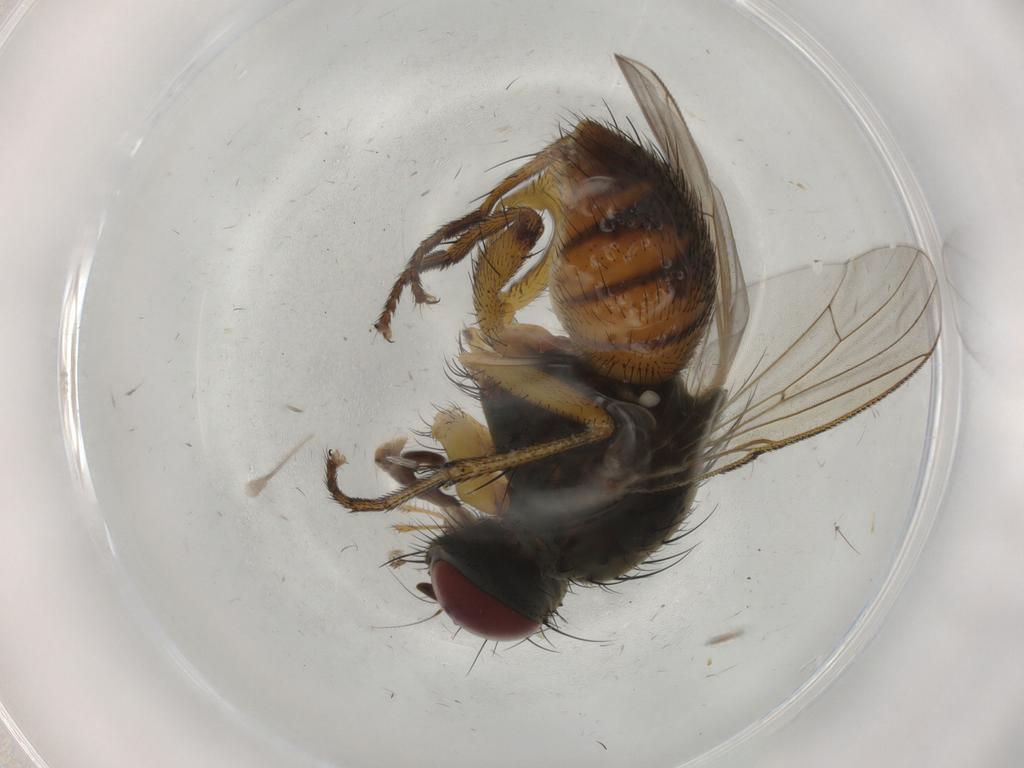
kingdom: Animalia
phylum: Arthropoda
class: Insecta
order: Diptera
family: Muscidae
